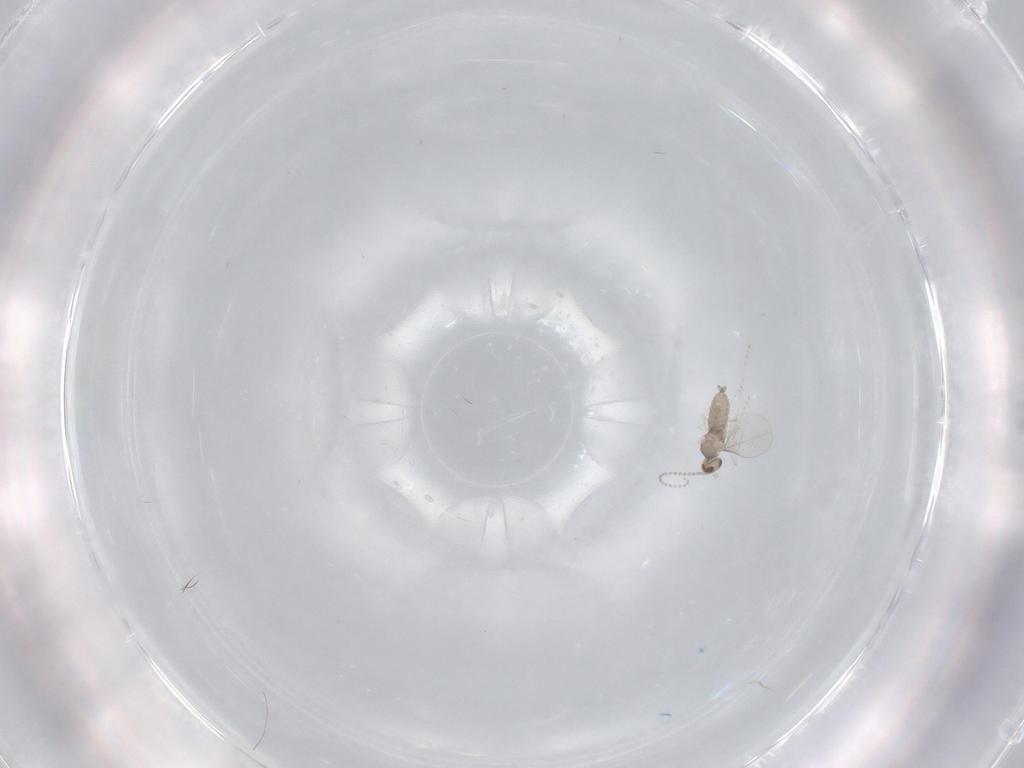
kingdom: Animalia
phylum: Arthropoda
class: Insecta
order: Diptera
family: Cecidomyiidae
